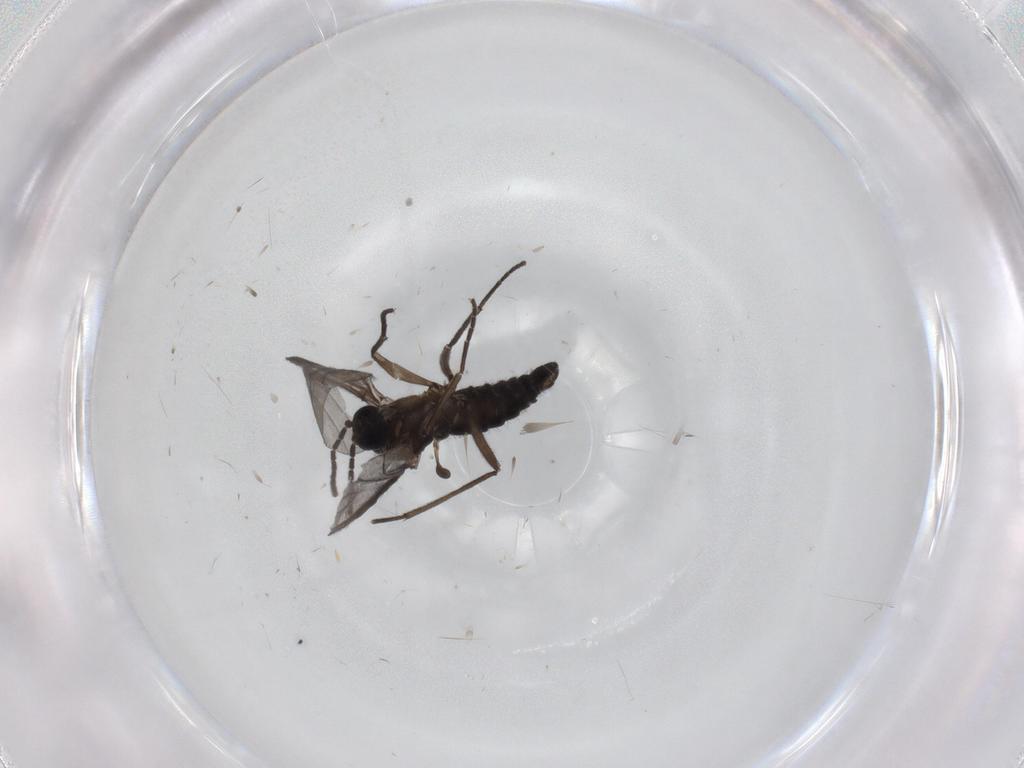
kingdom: Animalia
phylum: Arthropoda
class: Insecta
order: Diptera
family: Sciaridae
